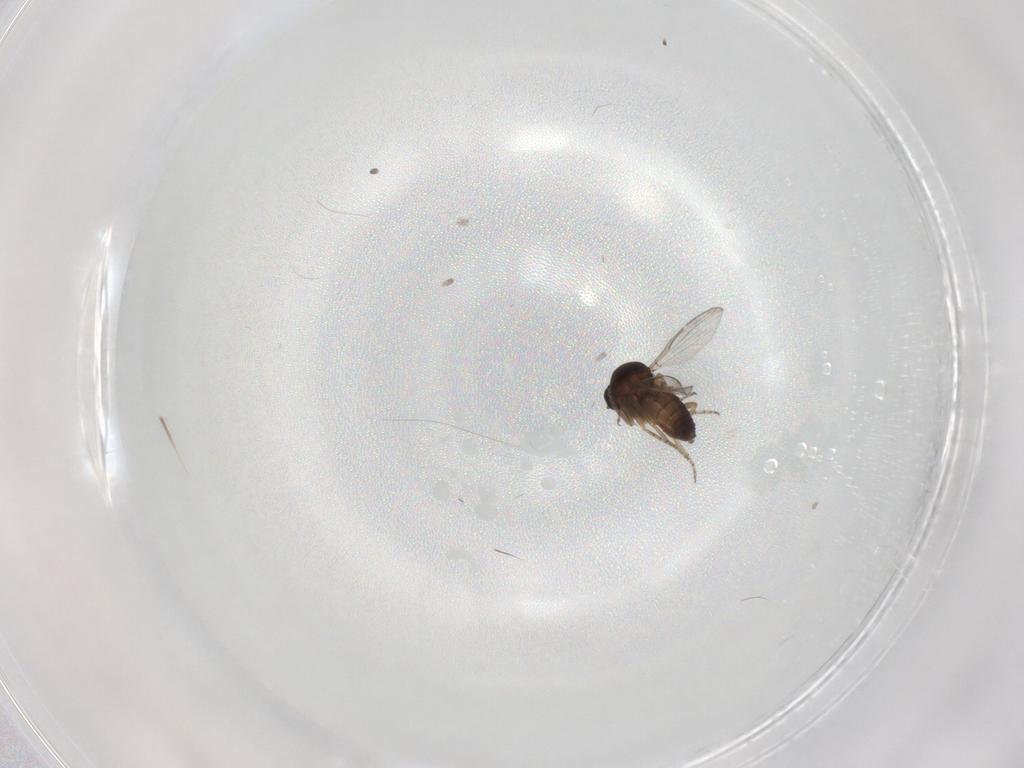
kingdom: Animalia
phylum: Arthropoda
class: Insecta
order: Diptera
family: Ceratopogonidae
